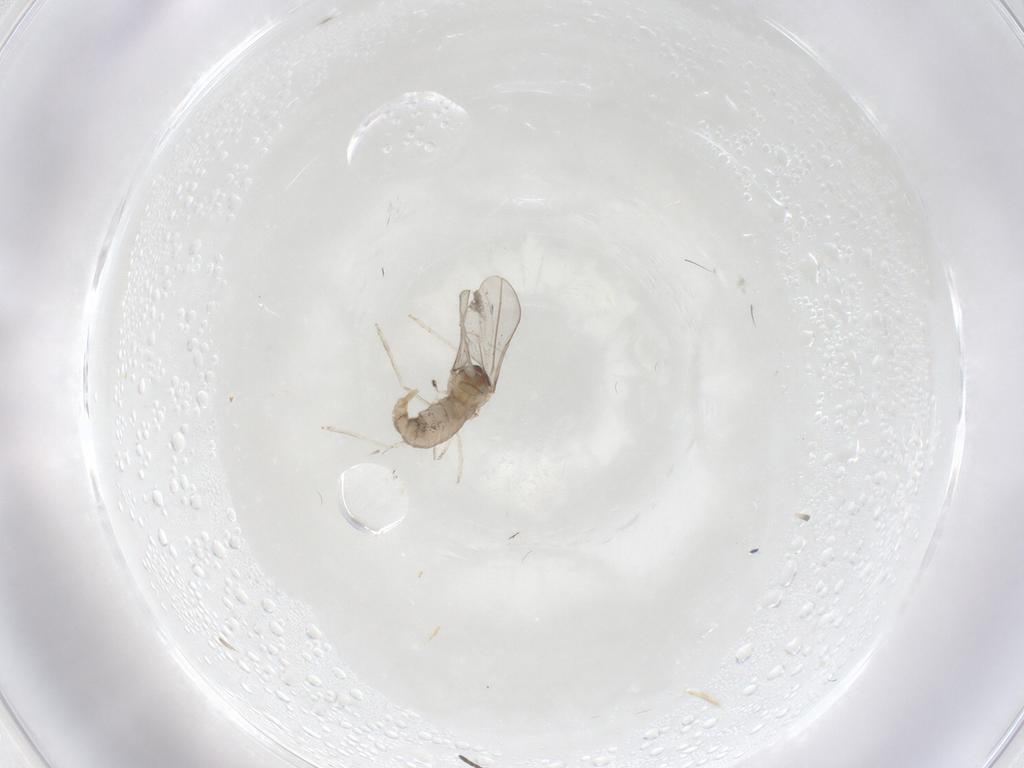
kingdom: Animalia
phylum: Arthropoda
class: Insecta
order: Diptera
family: Cecidomyiidae
